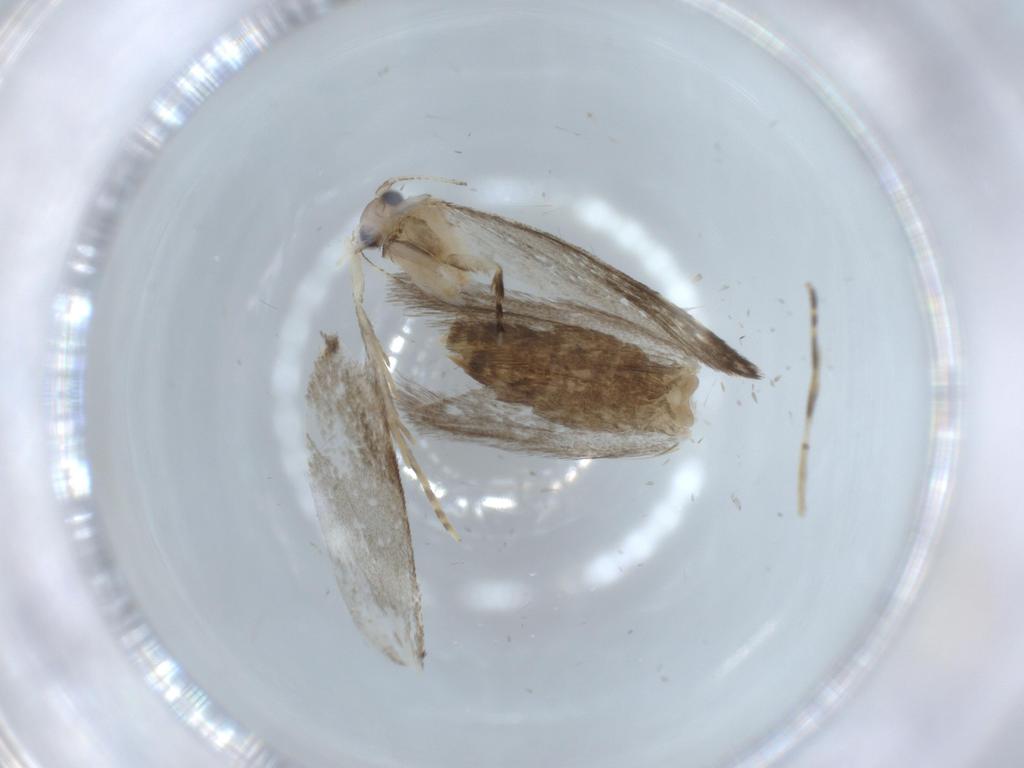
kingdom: Animalia
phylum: Arthropoda
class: Insecta
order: Lepidoptera
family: Tineidae
